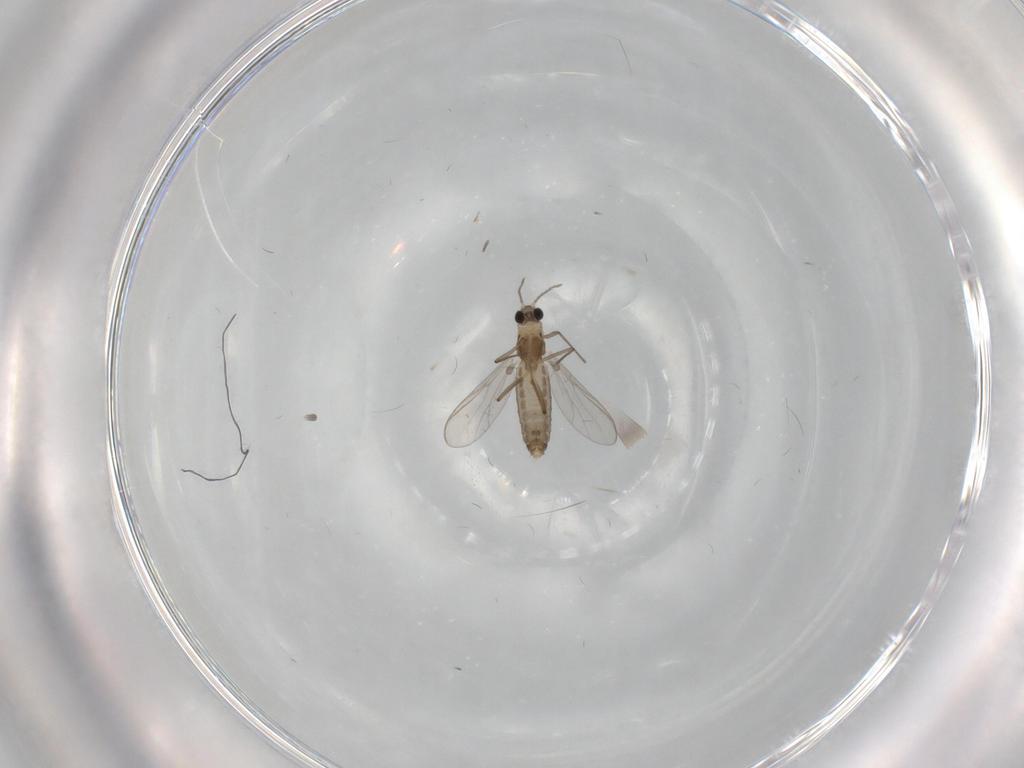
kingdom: Animalia
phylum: Arthropoda
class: Insecta
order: Diptera
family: Chironomidae
